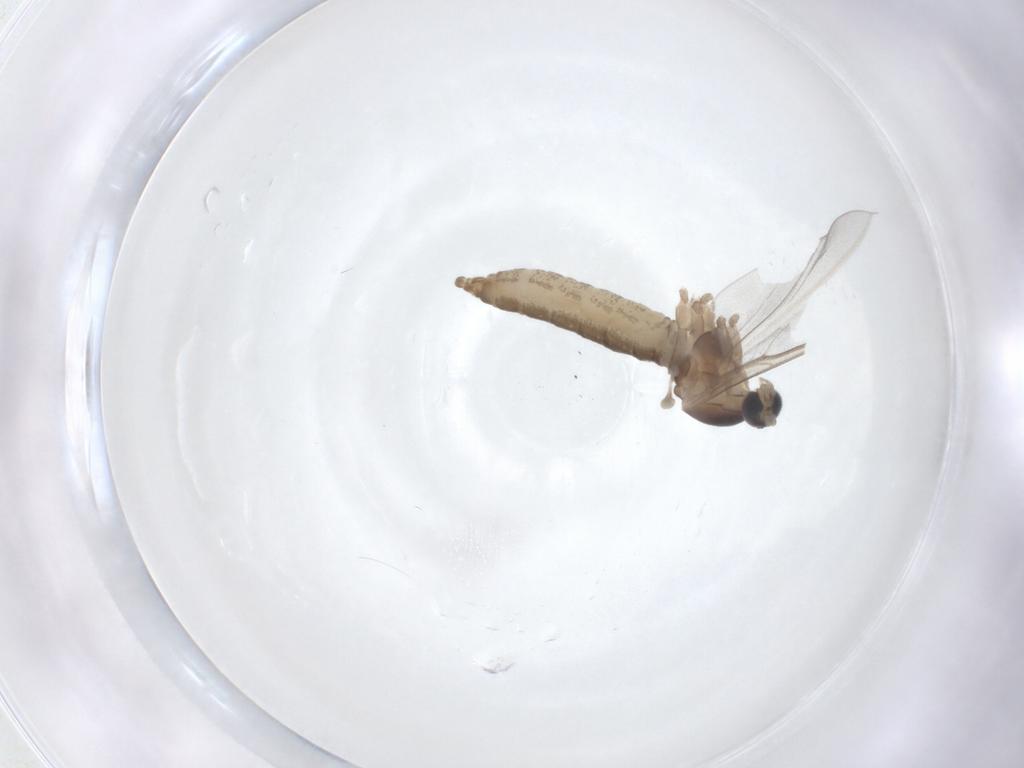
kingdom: Animalia
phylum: Arthropoda
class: Insecta
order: Diptera
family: Cecidomyiidae
